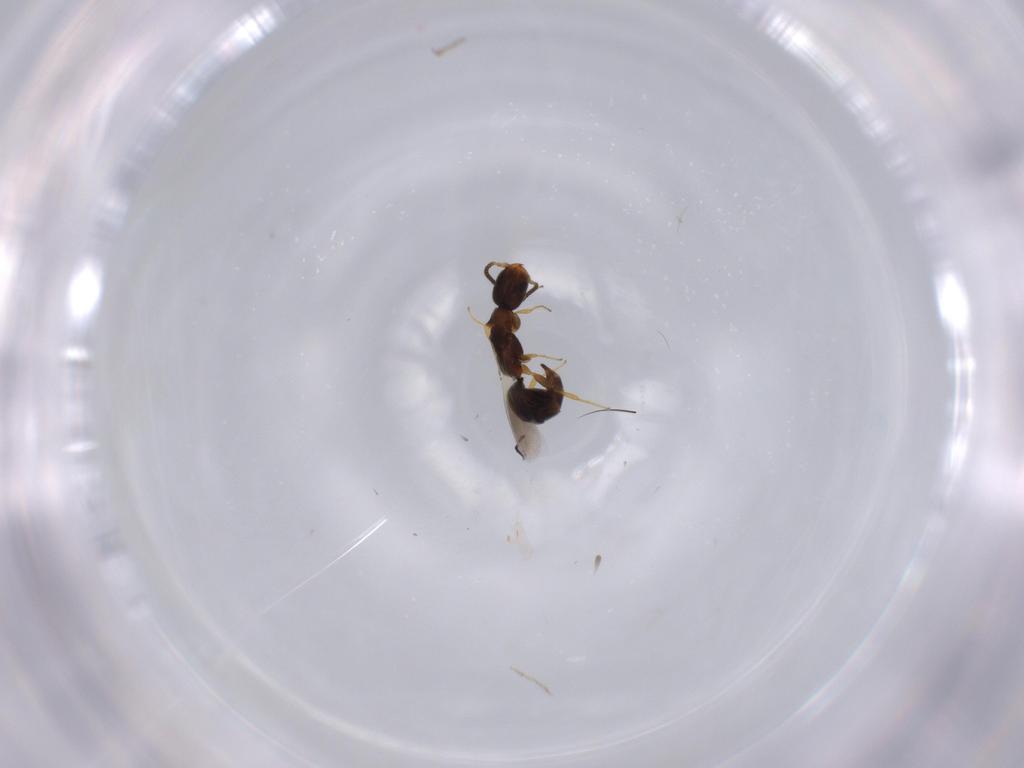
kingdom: Animalia
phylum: Arthropoda
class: Insecta
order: Hymenoptera
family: Bethylidae
